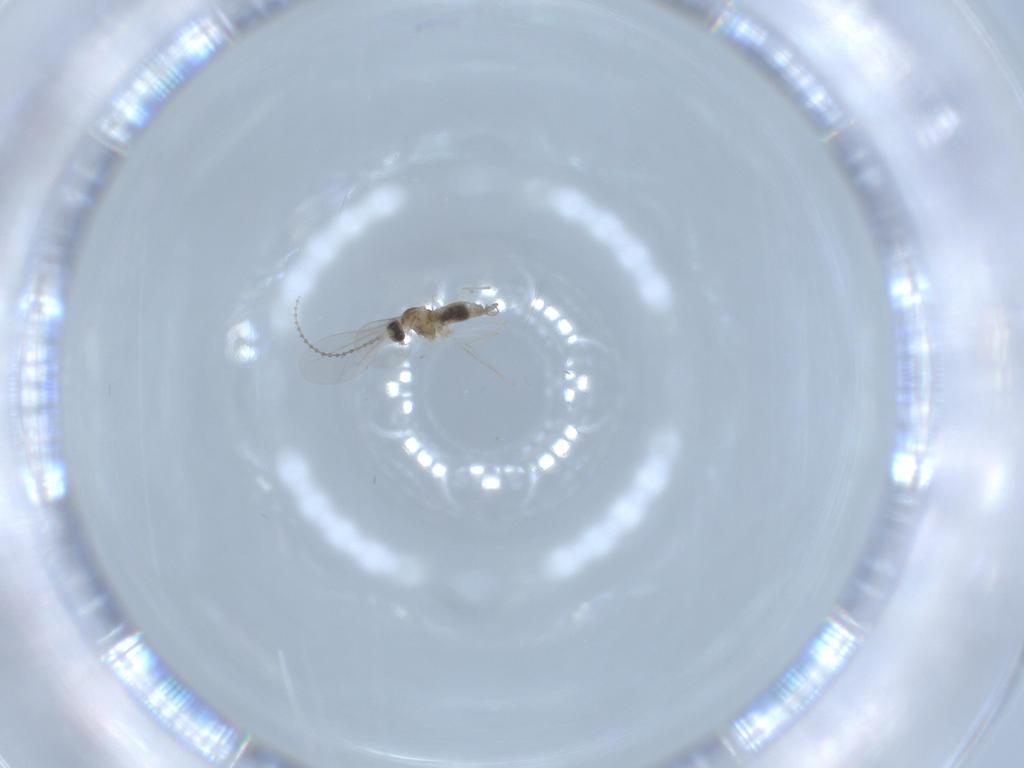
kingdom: Animalia
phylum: Arthropoda
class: Insecta
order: Diptera
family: Cecidomyiidae
